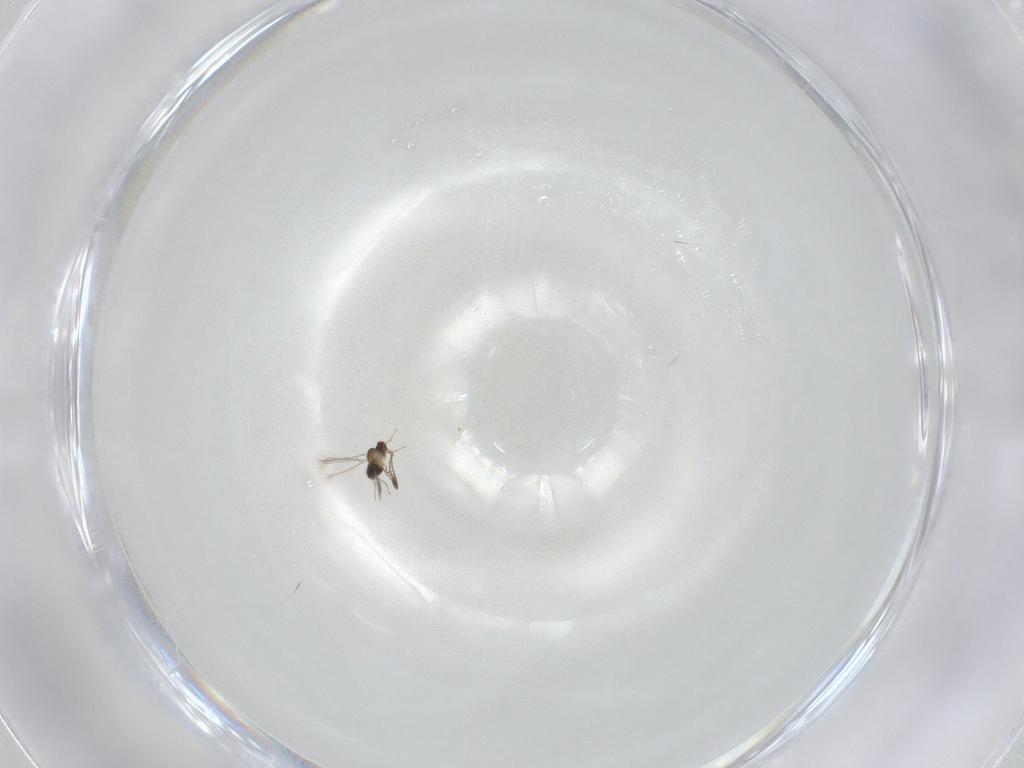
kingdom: Animalia
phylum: Arthropoda
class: Insecta
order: Hymenoptera
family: Mymaridae
